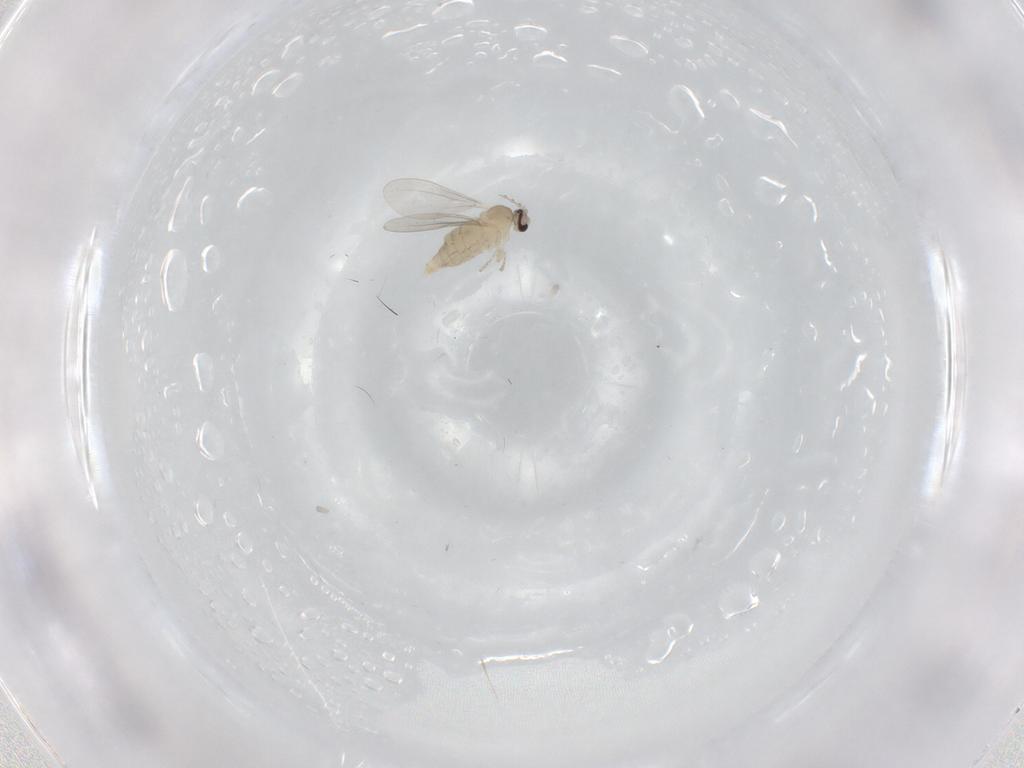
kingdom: Animalia
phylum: Arthropoda
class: Insecta
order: Diptera
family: Cecidomyiidae
